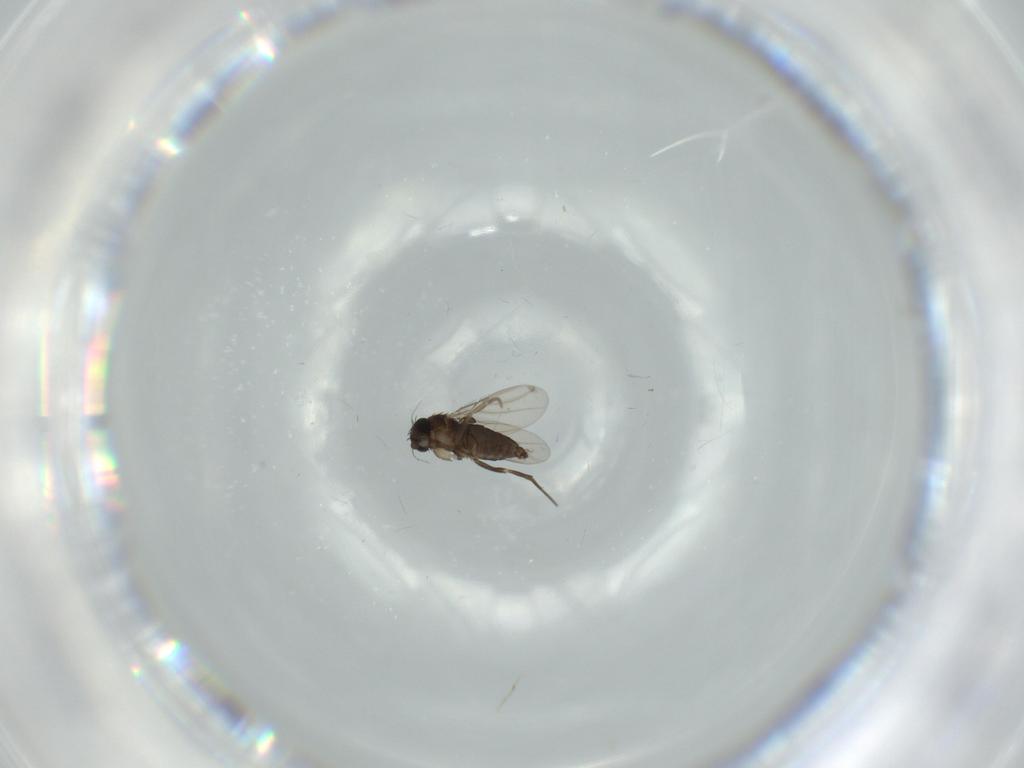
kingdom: Animalia
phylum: Arthropoda
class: Insecta
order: Diptera
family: Phoridae
